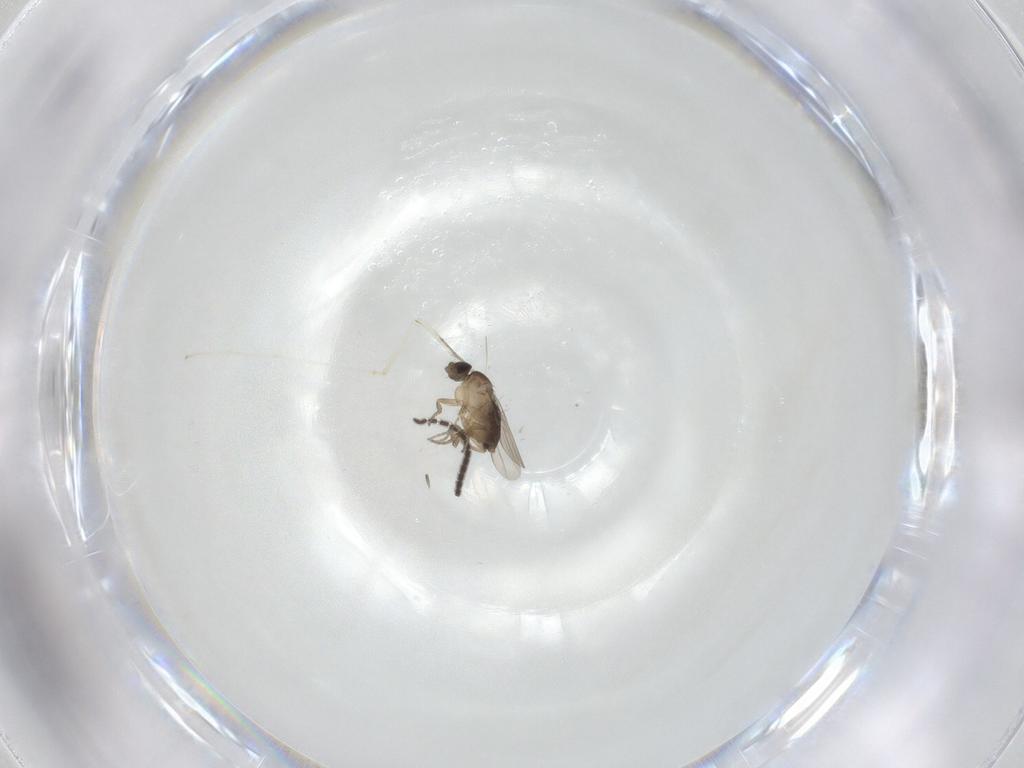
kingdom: Animalia
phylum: Arthropoda
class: Insecta
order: Diptera
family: Phoridae
